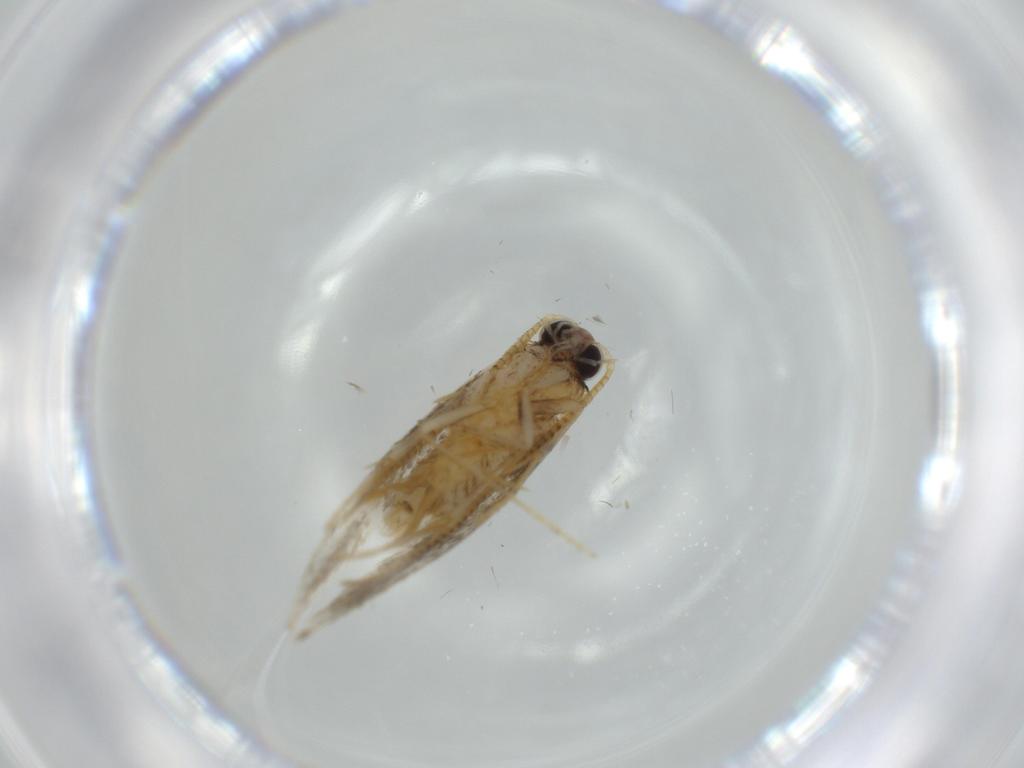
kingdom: Animalia
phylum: Arthropoda
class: Insecta
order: Lepidoptera
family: Tineidae
